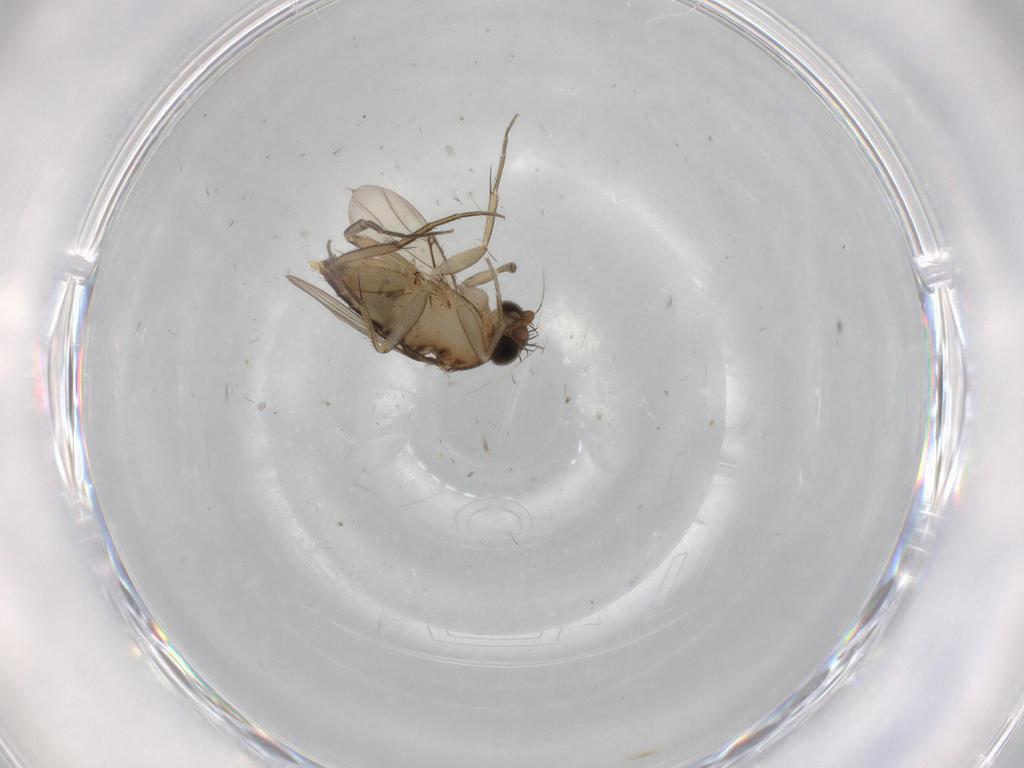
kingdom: Animalia
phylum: Arthropoda
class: Insecta
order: Diptera
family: Phoridae
